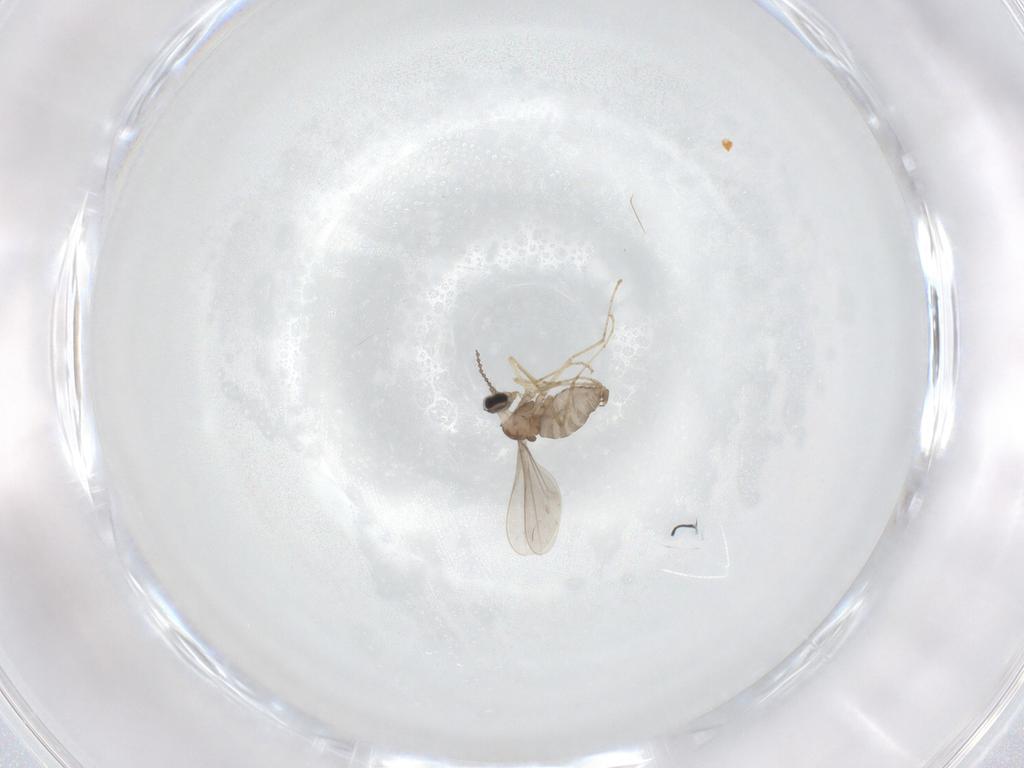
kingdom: Animalia
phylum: Arthropoda
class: Insecta
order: Diptera
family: Cecidomyiidae
